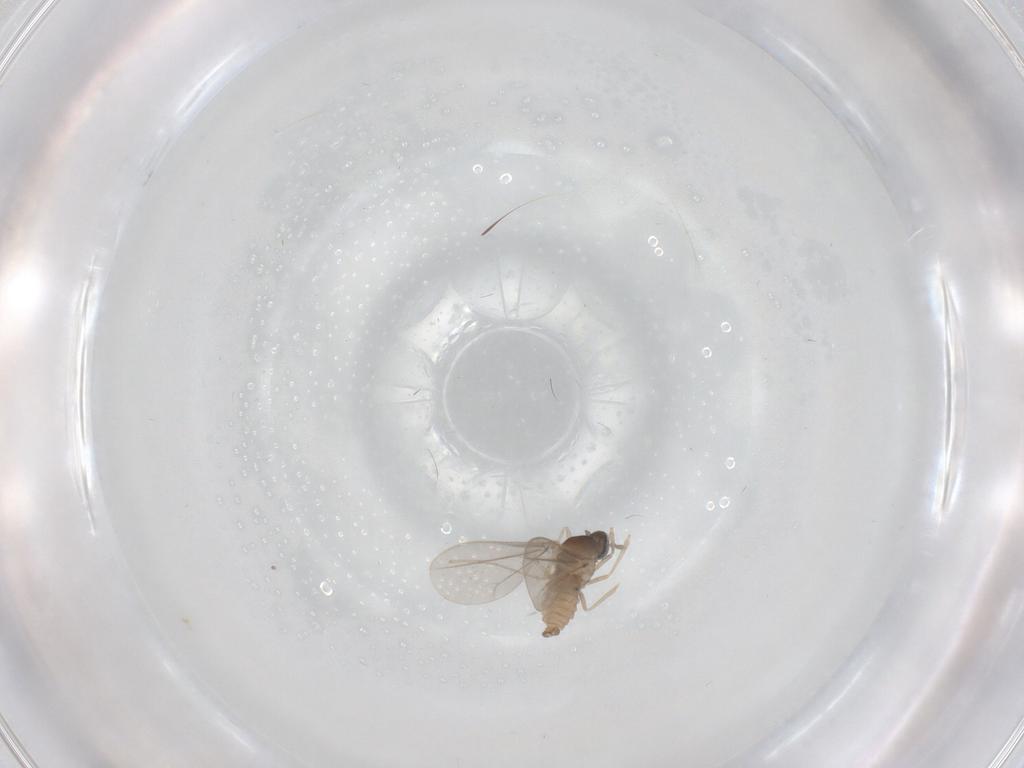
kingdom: Animalia
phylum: Arthropoda
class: Insecta
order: Diptera
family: Cecidomyiidae
